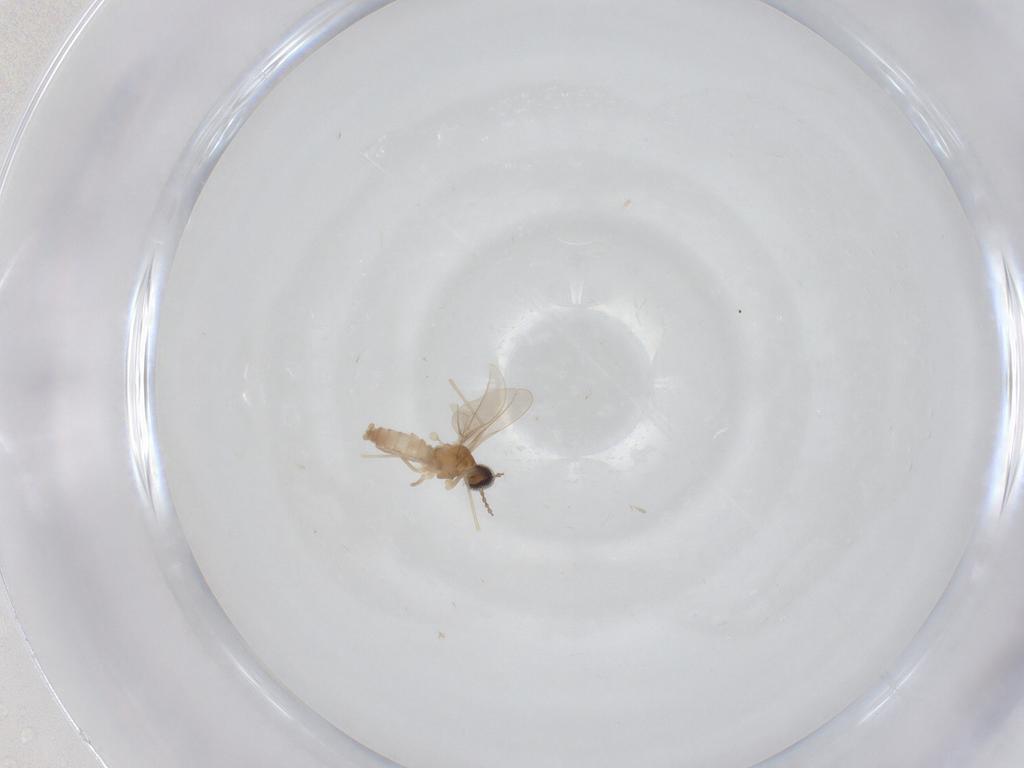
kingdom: Animalia
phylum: Arthropoda
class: Insecta
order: Diptera
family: Cecidomyiidae
